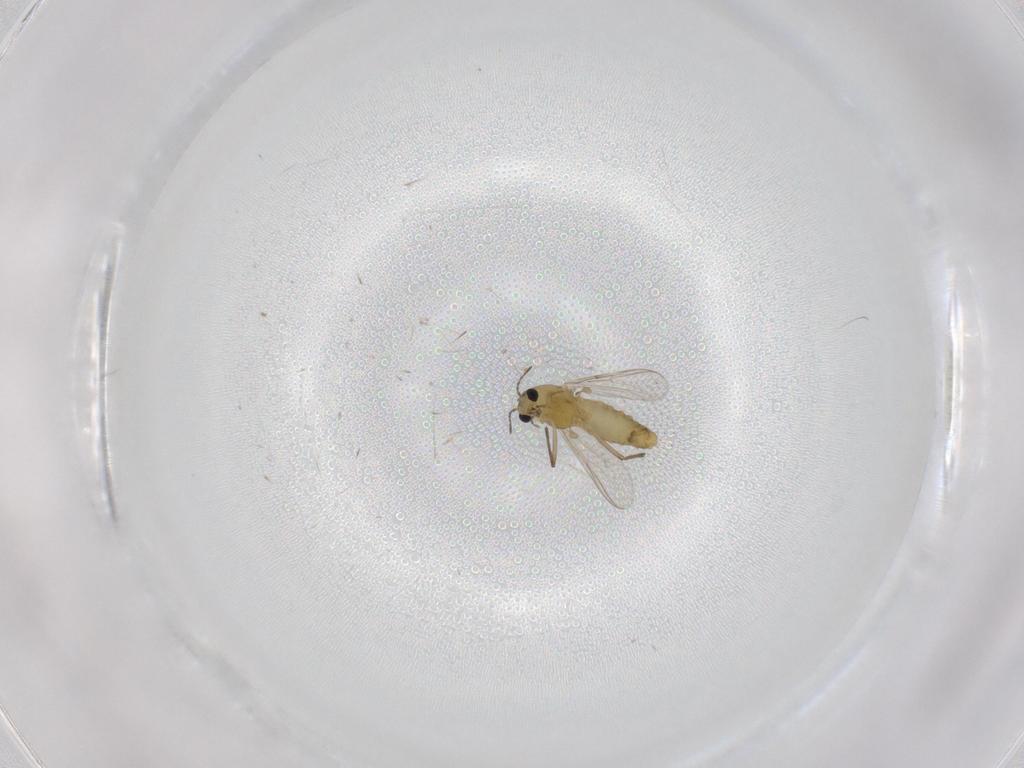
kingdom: Animalia
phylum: Arthropoda
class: Insecta
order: Diptera
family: Chironomidae
